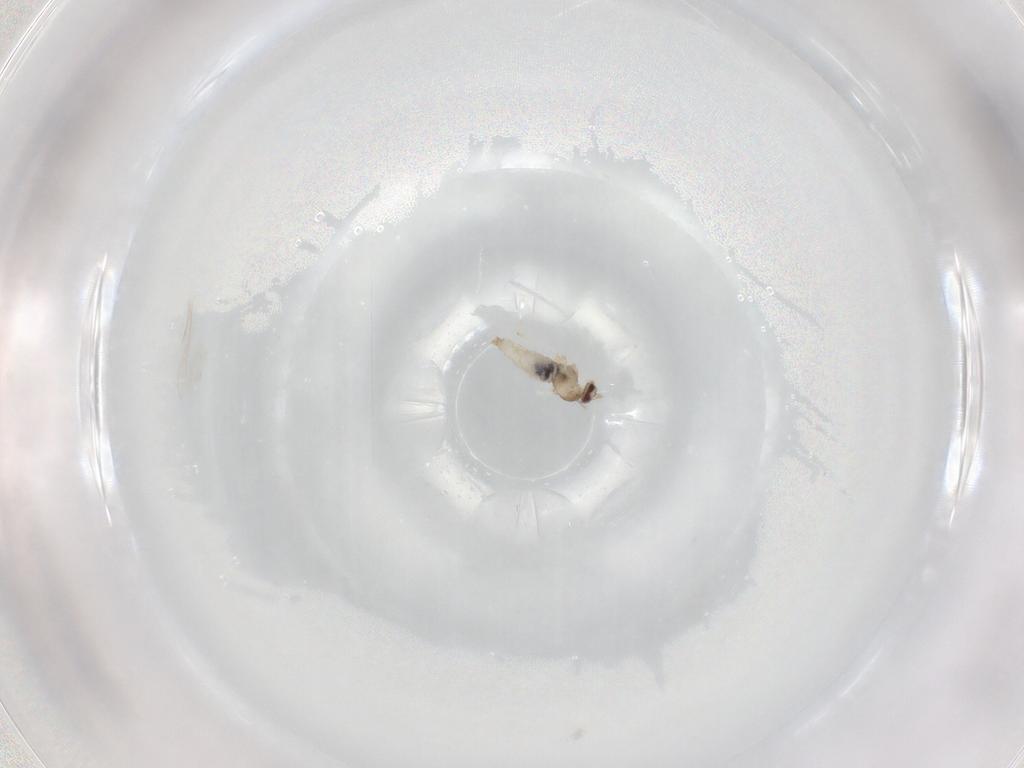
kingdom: Animalia
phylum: Arthropoda
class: Insecta
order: Diptera
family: Cecidomyiidae
